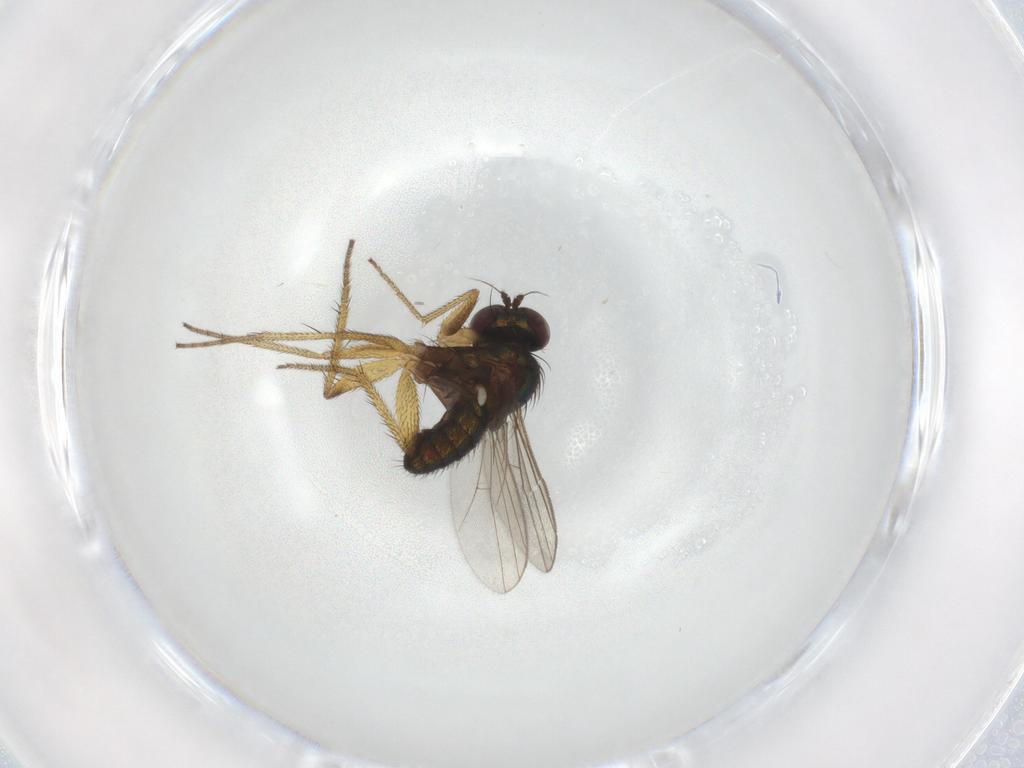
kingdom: Animalia
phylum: Arthropoda
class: Insecta
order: Diptera
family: Dolichopodidae
